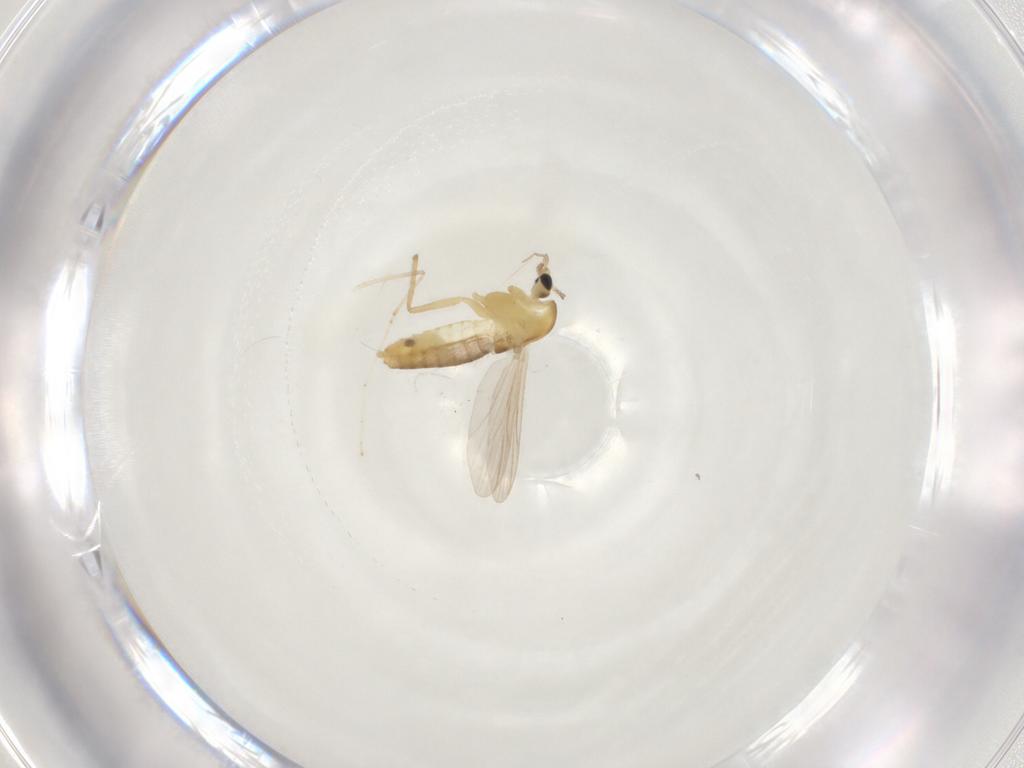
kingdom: Animalia
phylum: Arthropoda
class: Insecta
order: Diptera
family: Chironomidae
